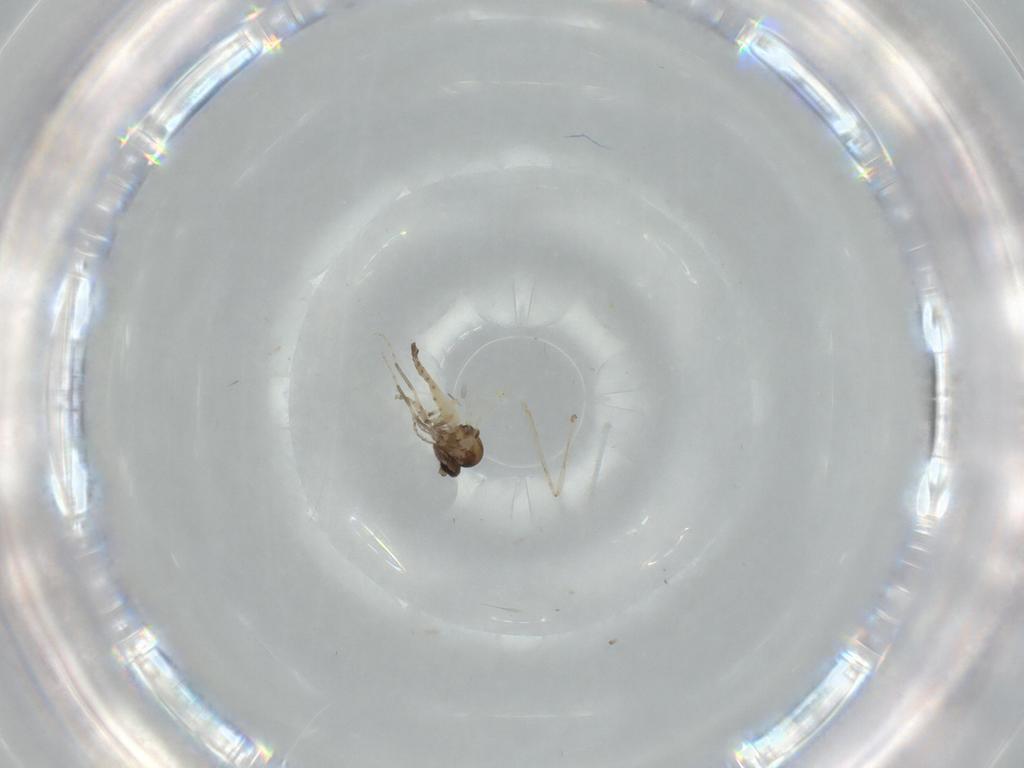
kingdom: Animalia
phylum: Arthropoda
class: Insecta
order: Diptera
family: Ceratopogonidae
